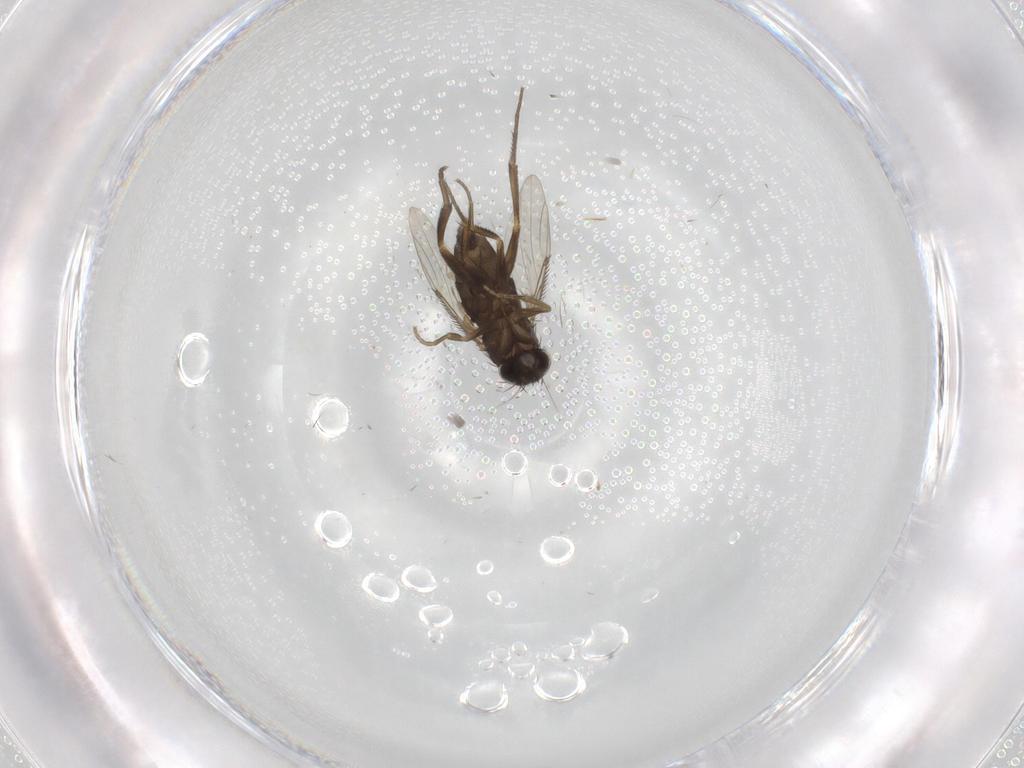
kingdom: Animalia
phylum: Arthropoda
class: Insecta
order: Diptera
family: Phoridae
